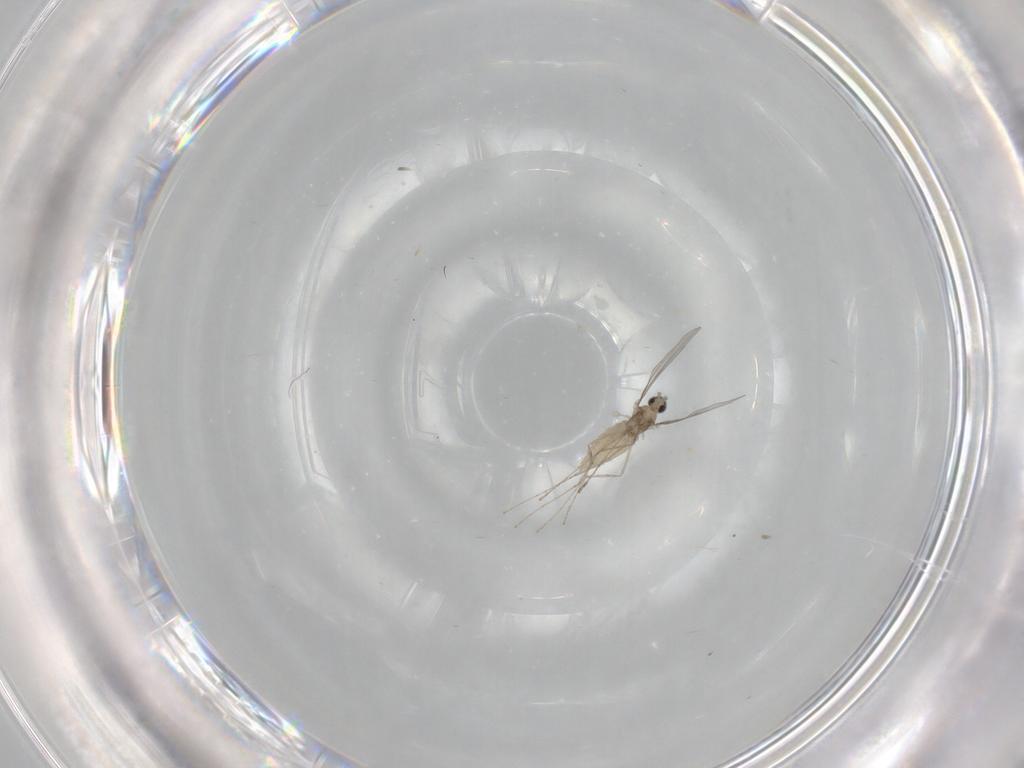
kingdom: Animalia
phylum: Arthropoda
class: Insecta
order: Diptera
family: Cecidomyiidae
